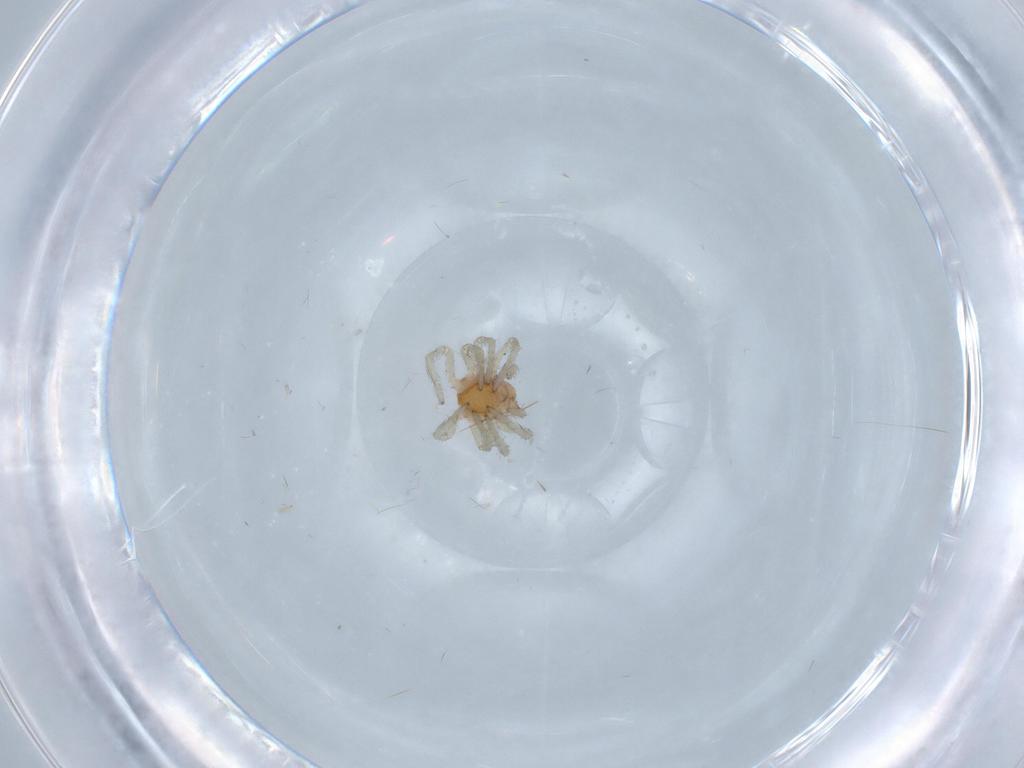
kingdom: Animalia
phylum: Arthropoda
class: Arachnida
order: Araneae
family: Dictynidae
